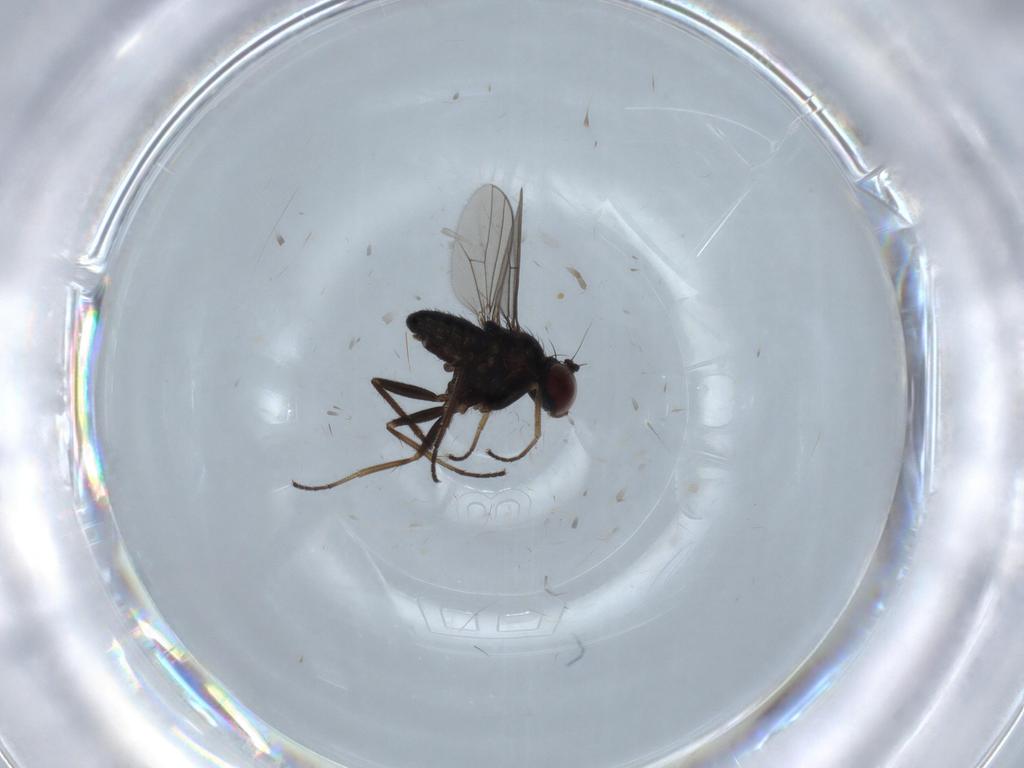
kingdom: Animalia
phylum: Arthropoda
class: Insecta
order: Diptera
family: Dolichopodidae
